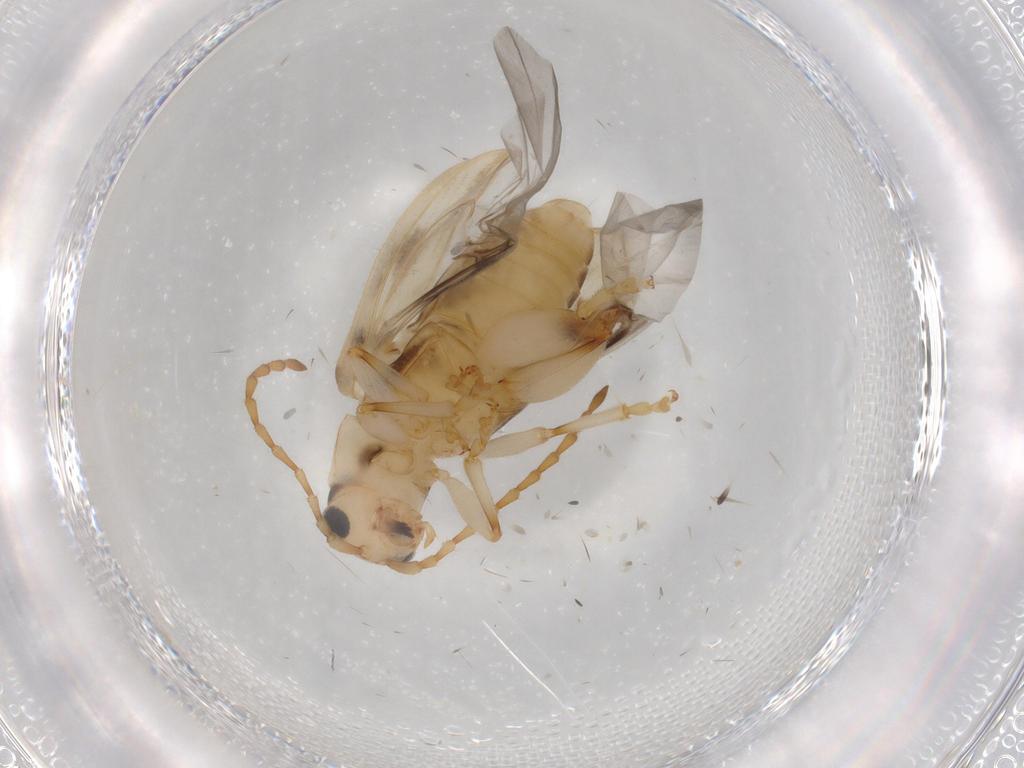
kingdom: Animalia
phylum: Arthropoda
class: Insecta
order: Coleoptera
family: Chrysomelidae
